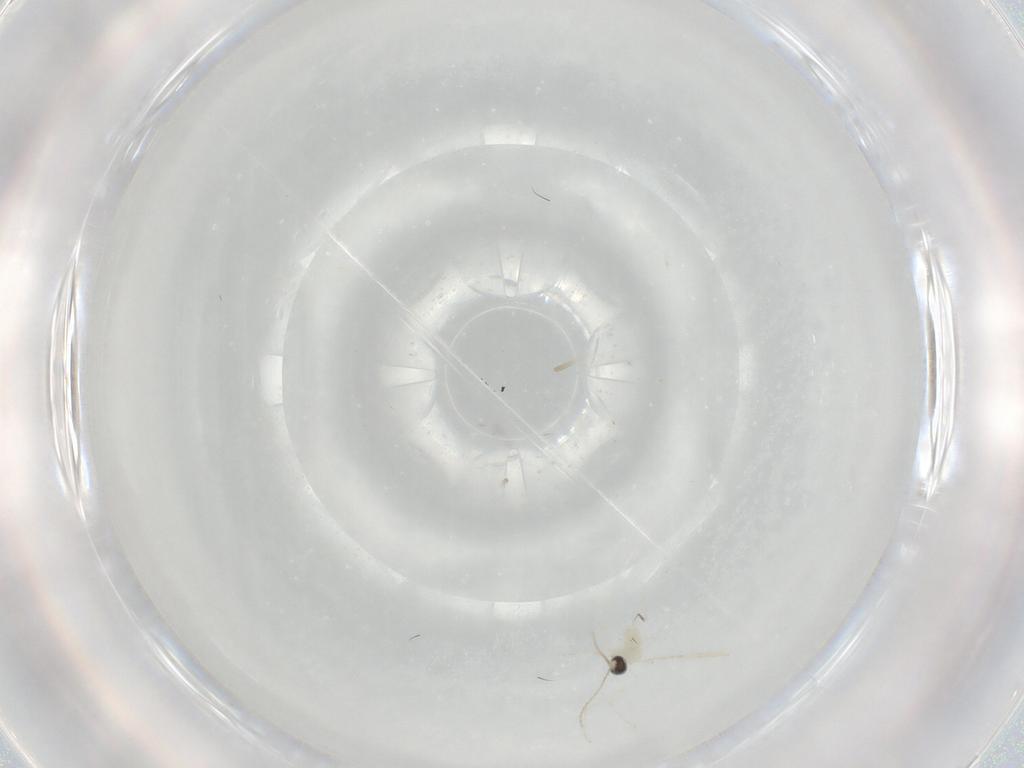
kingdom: Animalia
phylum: Arthropoda
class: Insecta
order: Diptera
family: Cecidomyiidae
